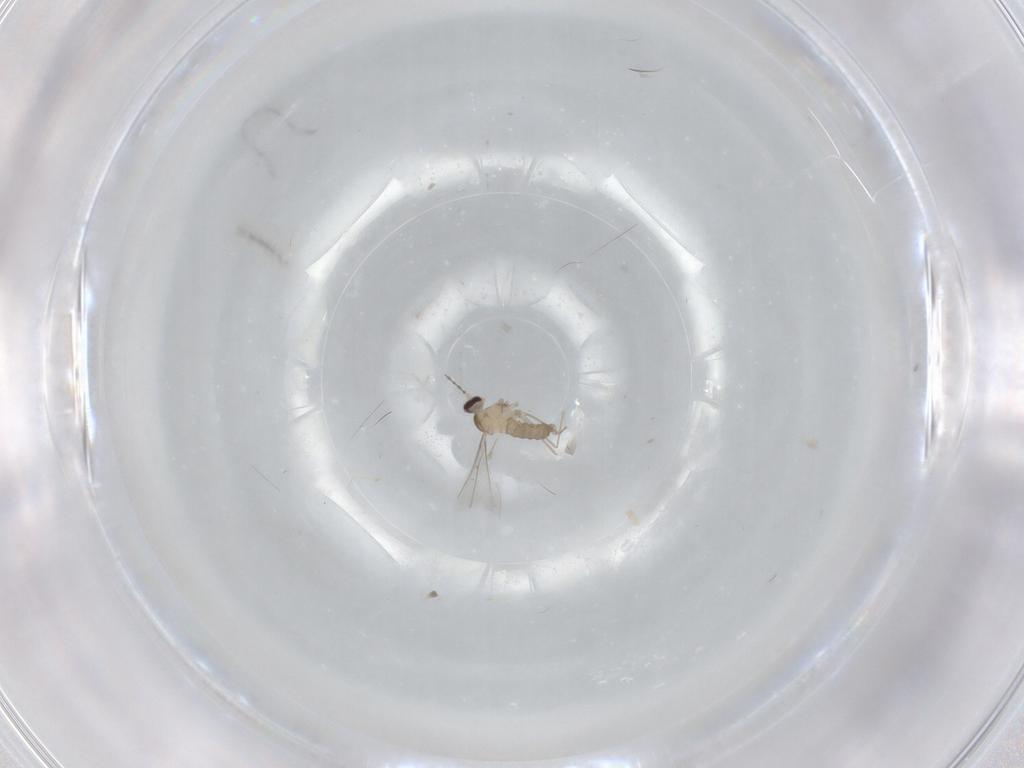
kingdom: Animalia
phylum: Arthropoda
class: Insecta
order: Diptera
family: Cecidomyiidae
